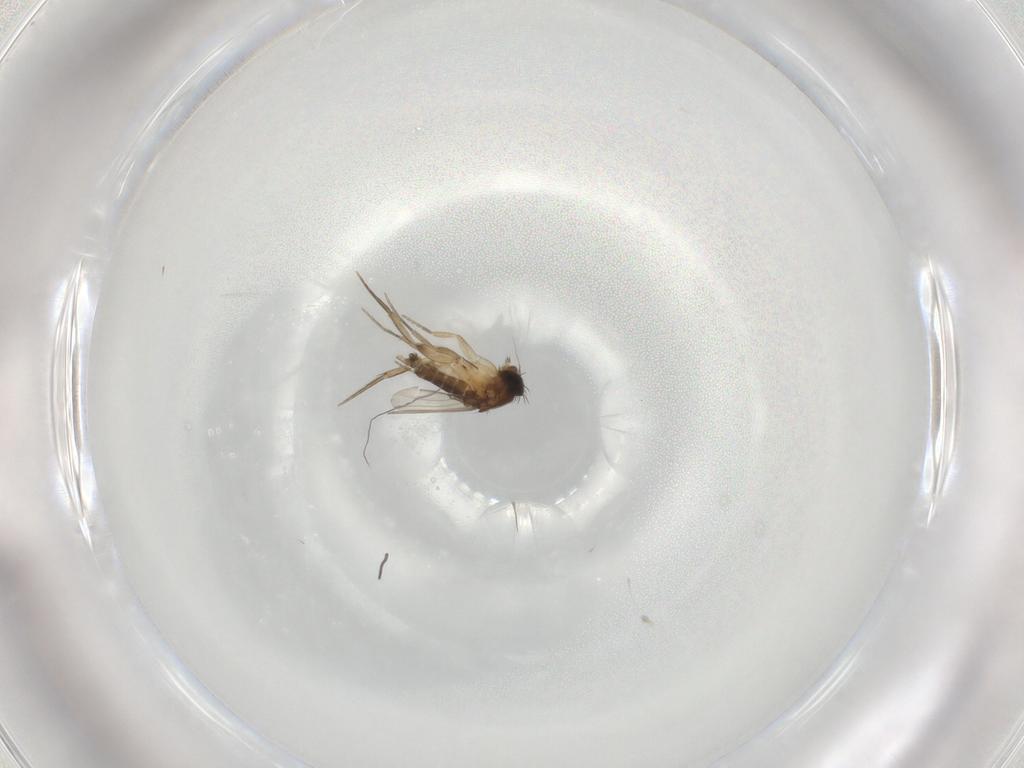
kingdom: Animalia
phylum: Arthropoda
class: Insecta
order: Diptera
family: Phoridae
